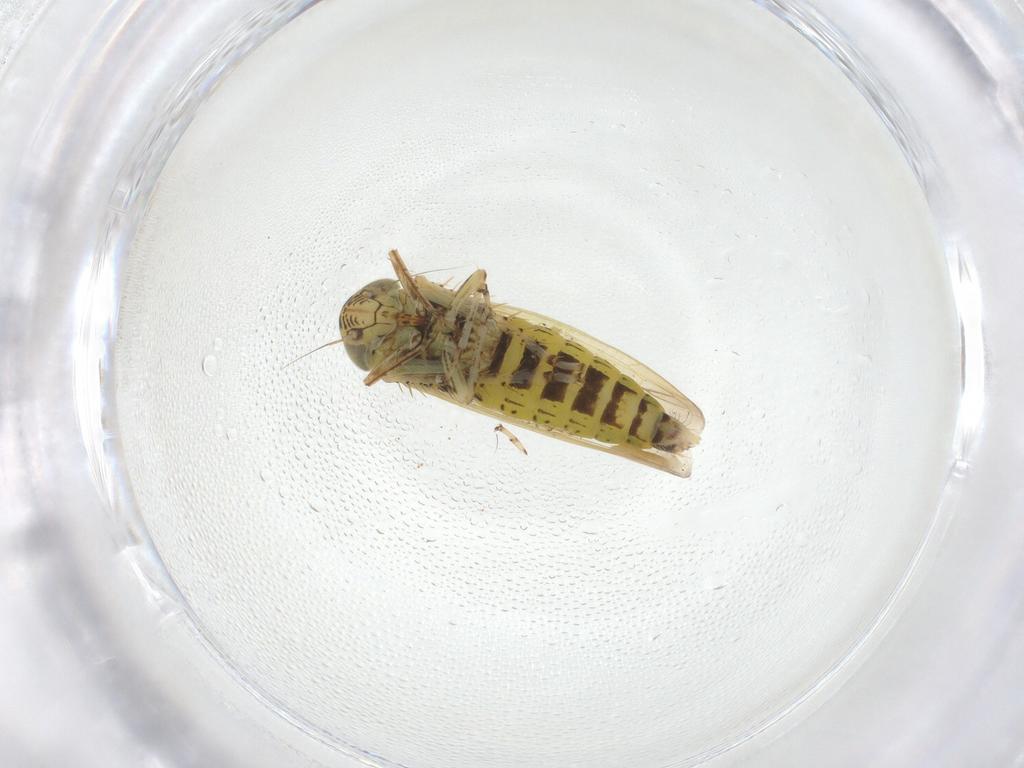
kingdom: Animalia
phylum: Arthropoda
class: Insecta
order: Hemiptera
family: Cicadellidae
